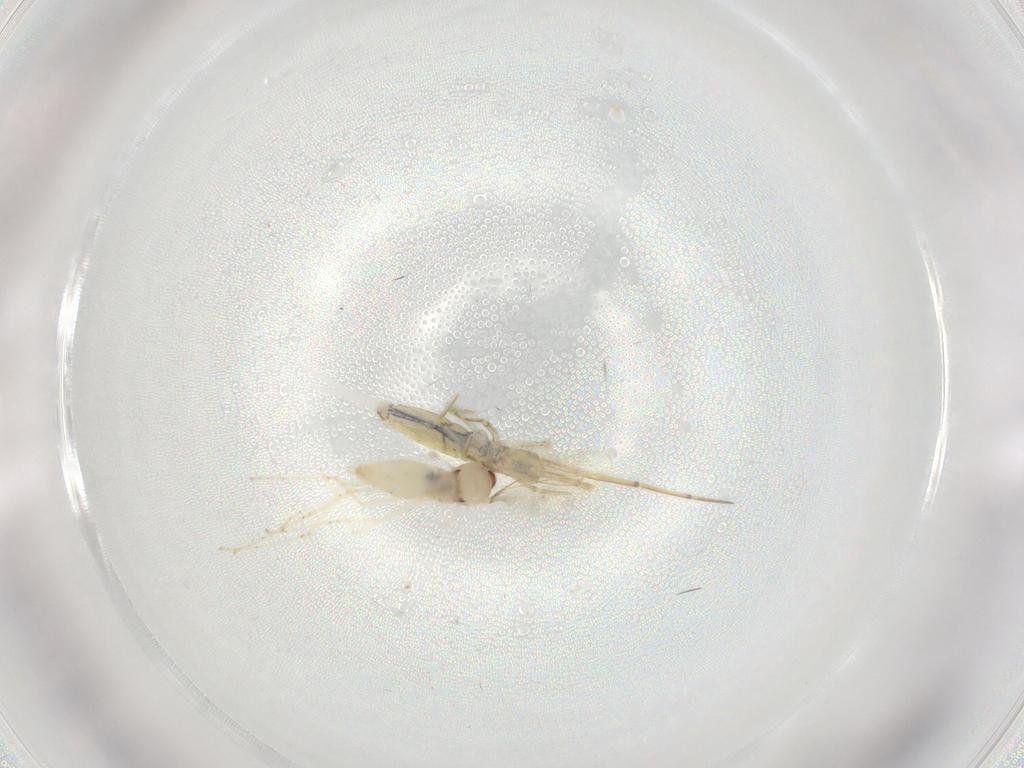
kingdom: Animalia
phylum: Arthropoda
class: Insecta
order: Diptera
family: Limoniidae
